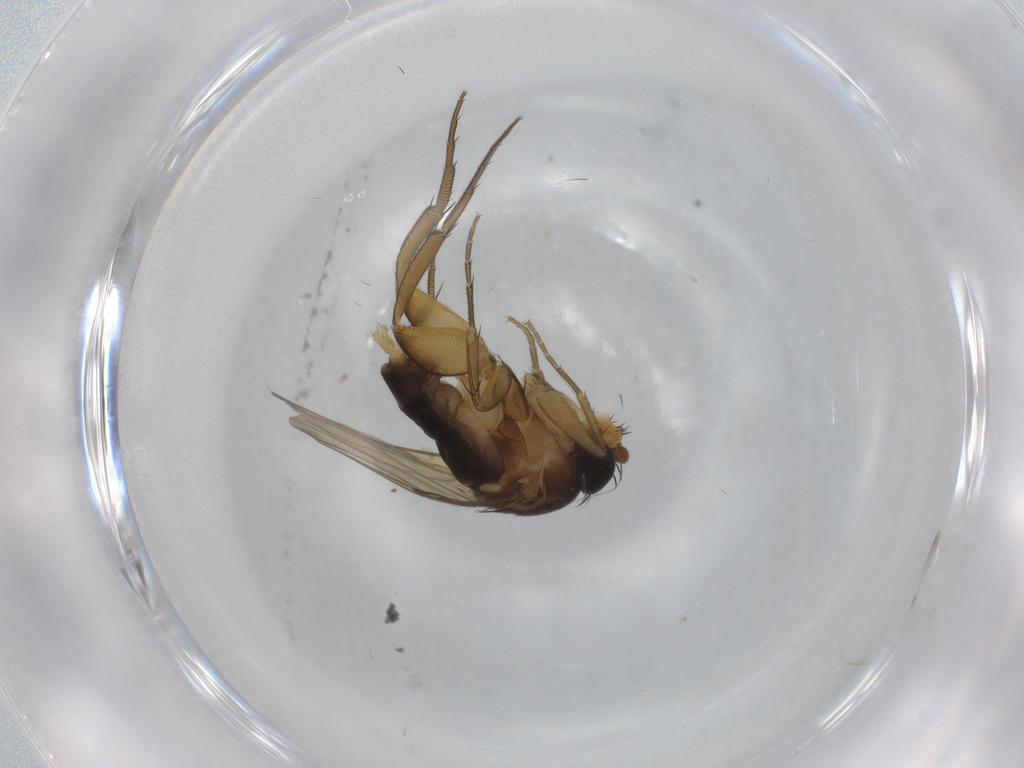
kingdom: Animalia
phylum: Arthropoda
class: Insecta
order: Diptera
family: Phoridae
